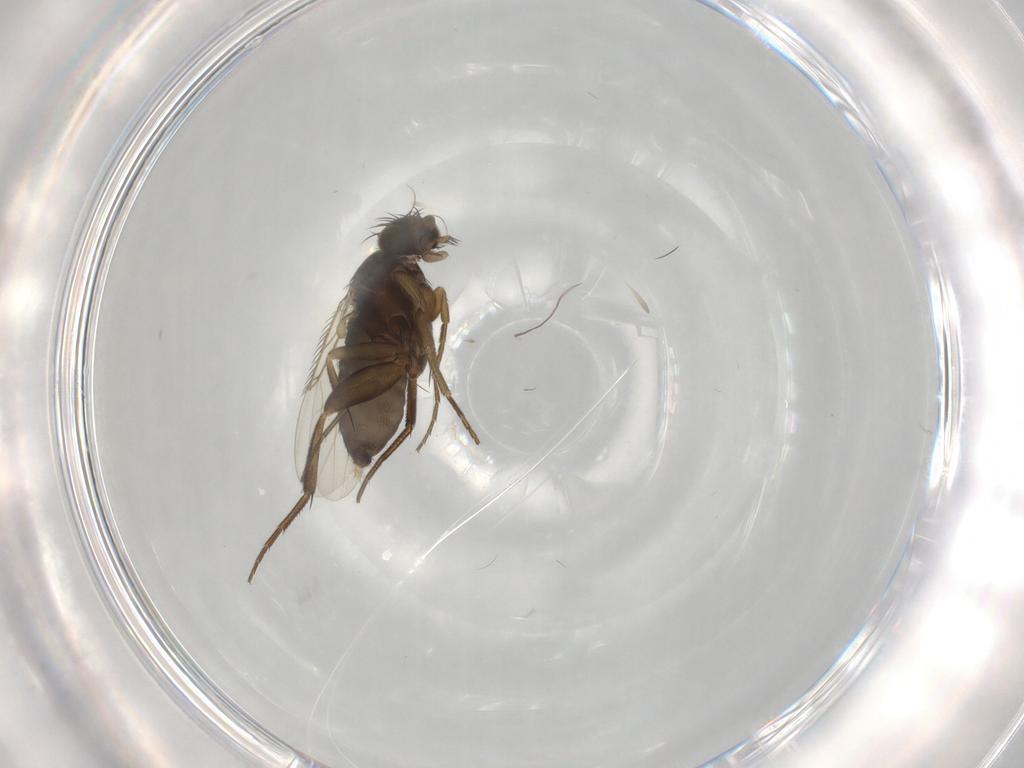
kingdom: Animalia
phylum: Arthropoda
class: Insecta
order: Diptera
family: Phoridae
